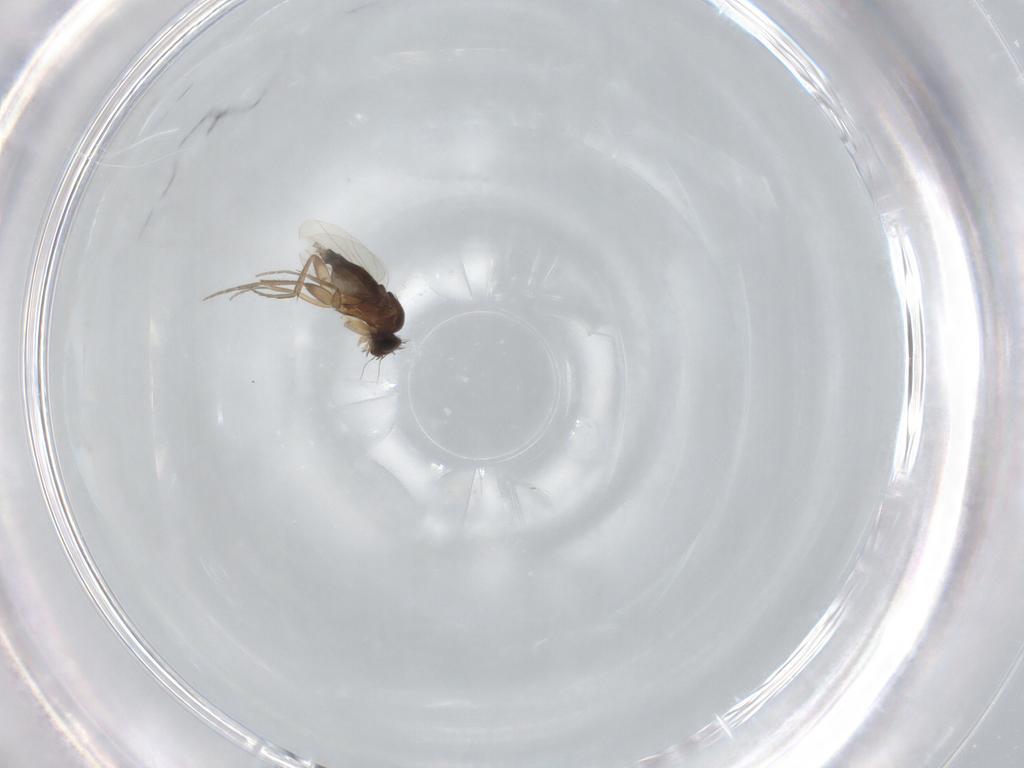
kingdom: Animalia
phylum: Arthropoda
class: Insecta
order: Diptera
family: Phoridae
